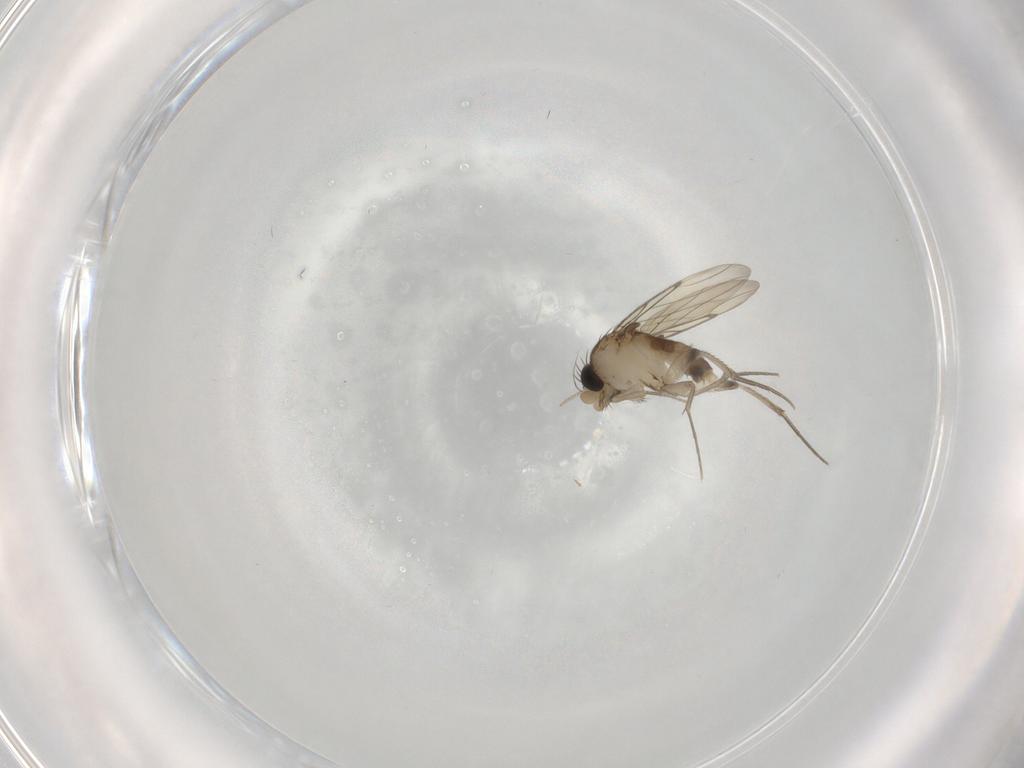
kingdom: Animalia
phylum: Arthropoda
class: Insecta
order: Diptera
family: Phoridae
